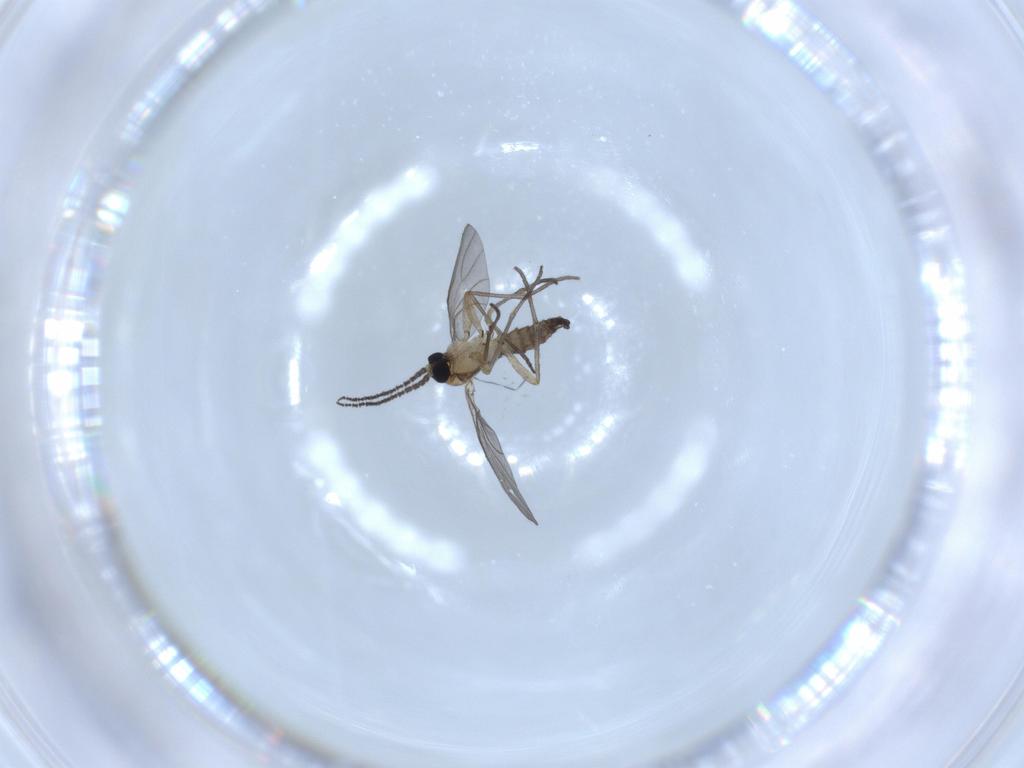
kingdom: Animalia
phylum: Arthropoda
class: Insecta
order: Diptera
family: Sciaridae
